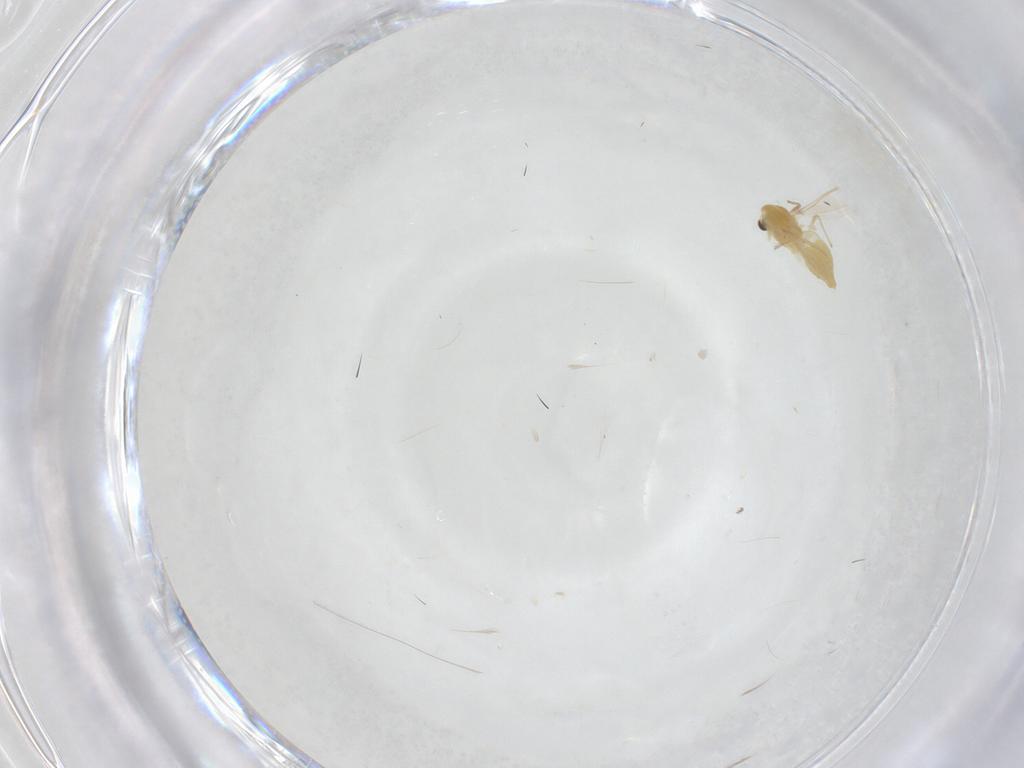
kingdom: Animalia
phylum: Arthropoda
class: Insecta
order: Diptera
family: Chironomidae
